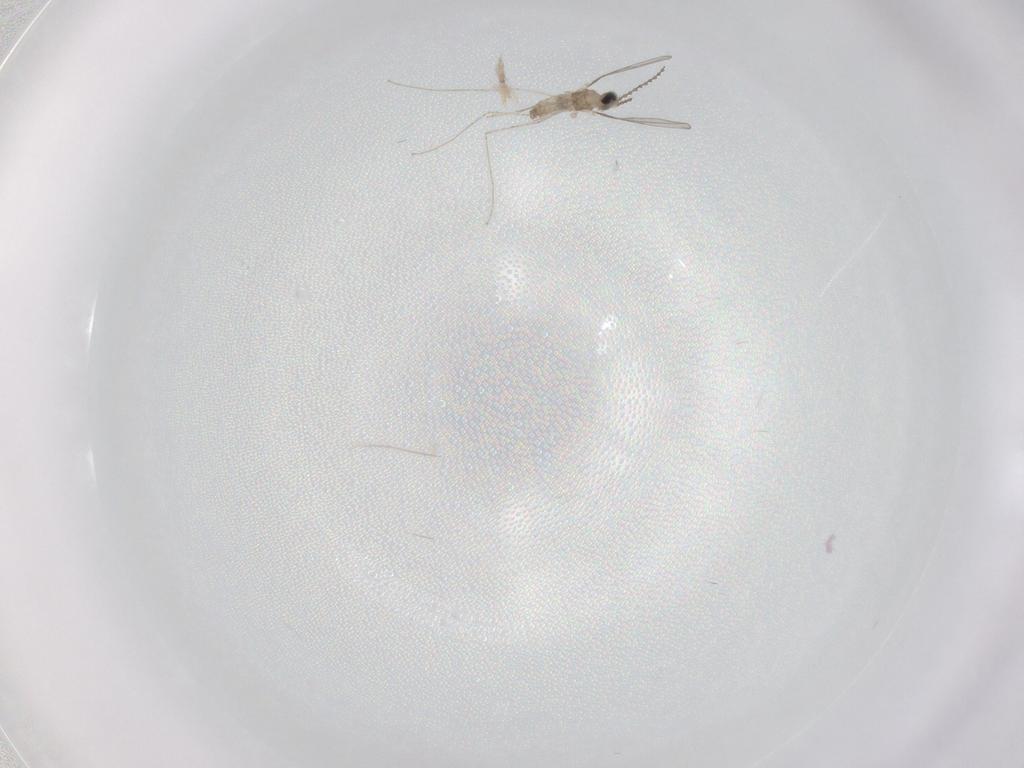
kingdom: Animalia
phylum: Arthropoda
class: Insecta
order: Diptera
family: Cecidomyiidae
